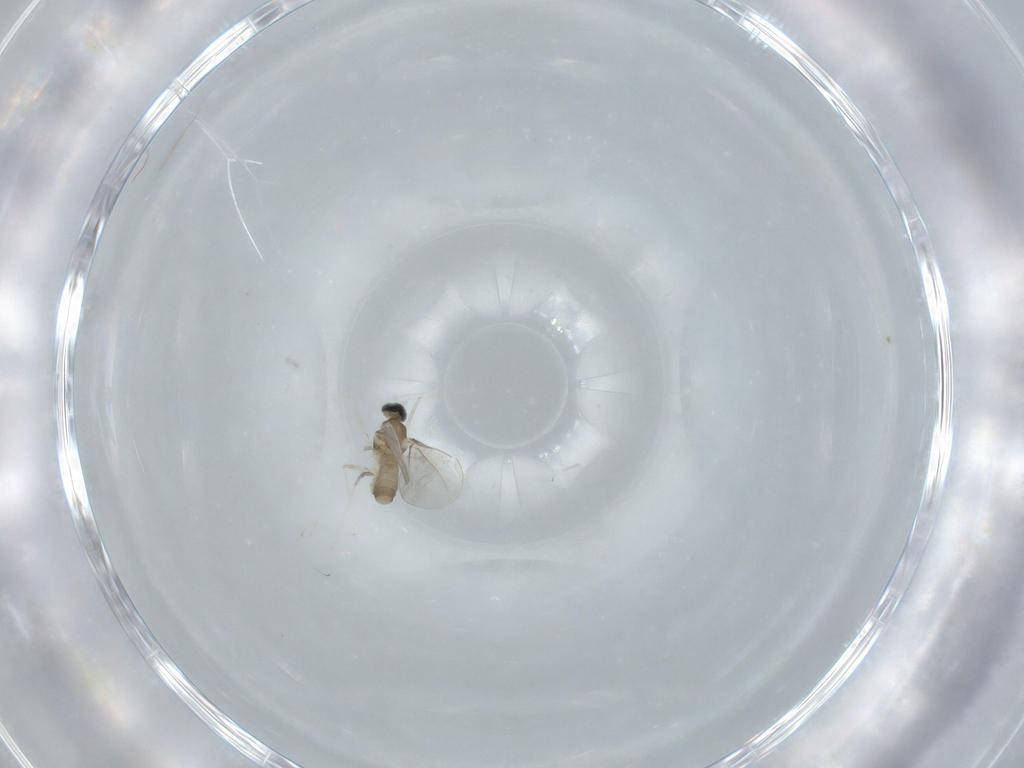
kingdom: Animalia
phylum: Arthropoda
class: Insecta
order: Diptera
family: Cecidomyiidae
